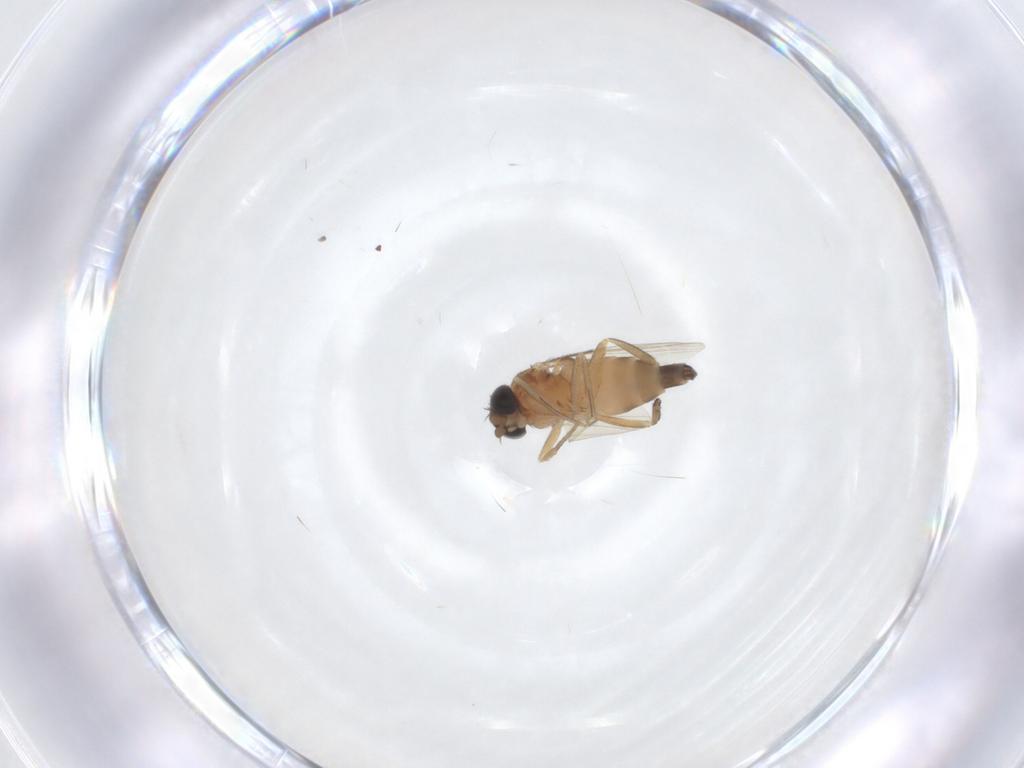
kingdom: Animalia
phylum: Arthropoda
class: Insecta
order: Diptera
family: Phoridae
